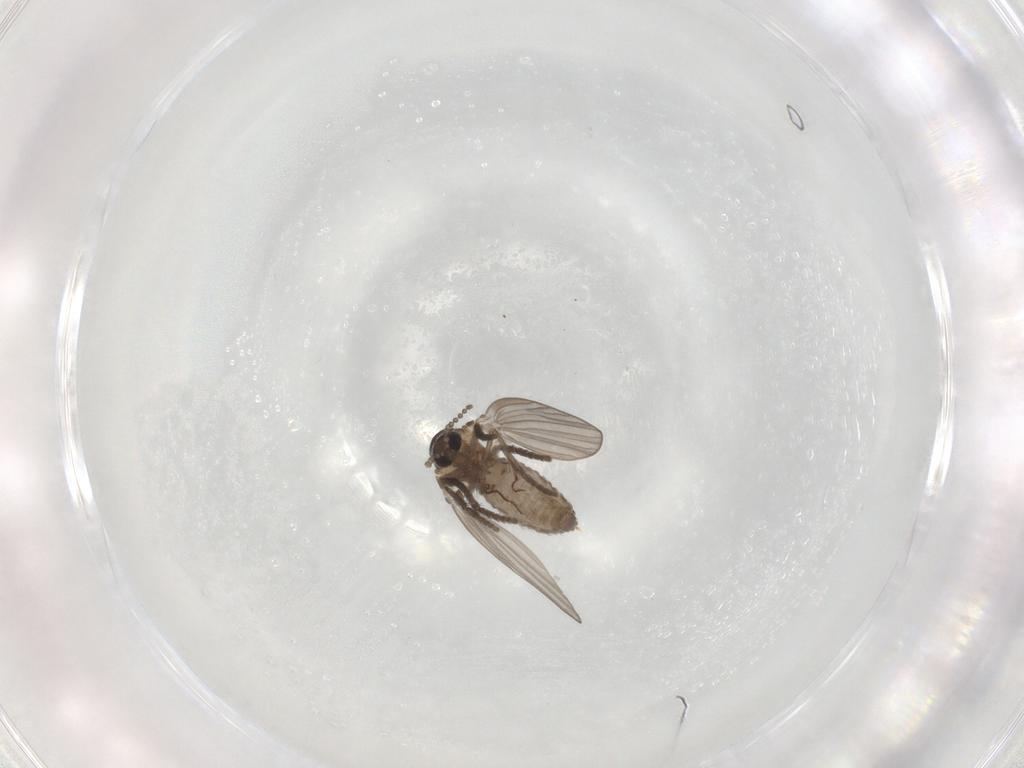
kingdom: Animalia
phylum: Arthropoda
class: Insecta
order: Diptera
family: Psychodidae
